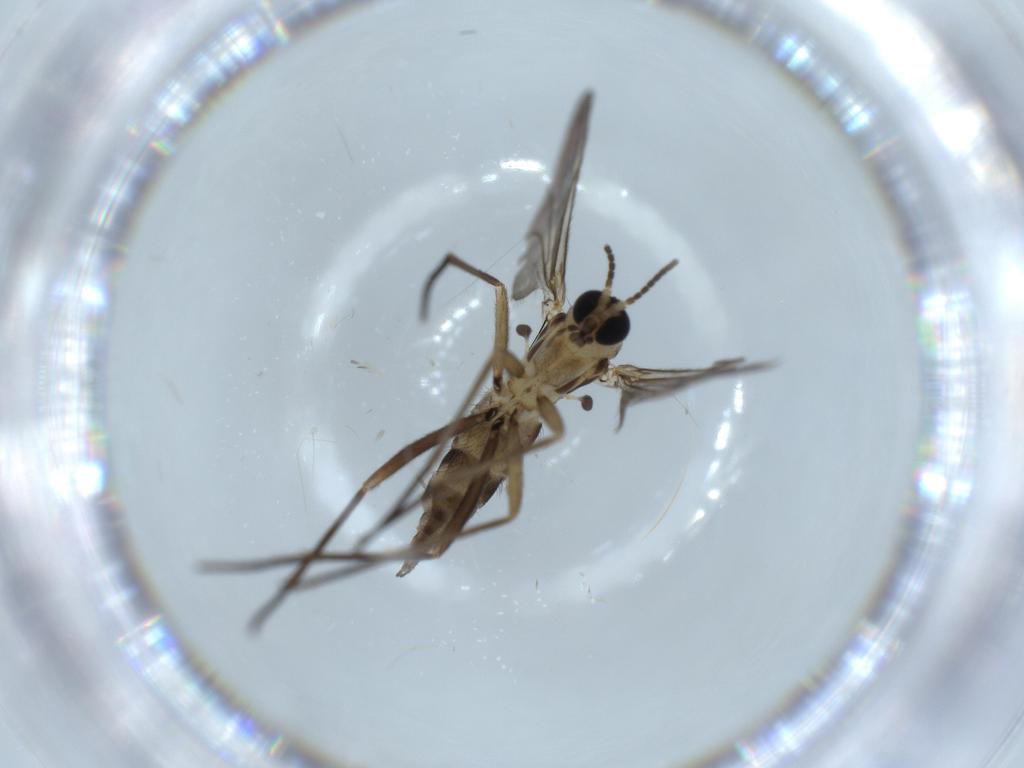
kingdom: Animalia
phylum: Arthropoda
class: Insecta
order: Diptera
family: Sciaridae
